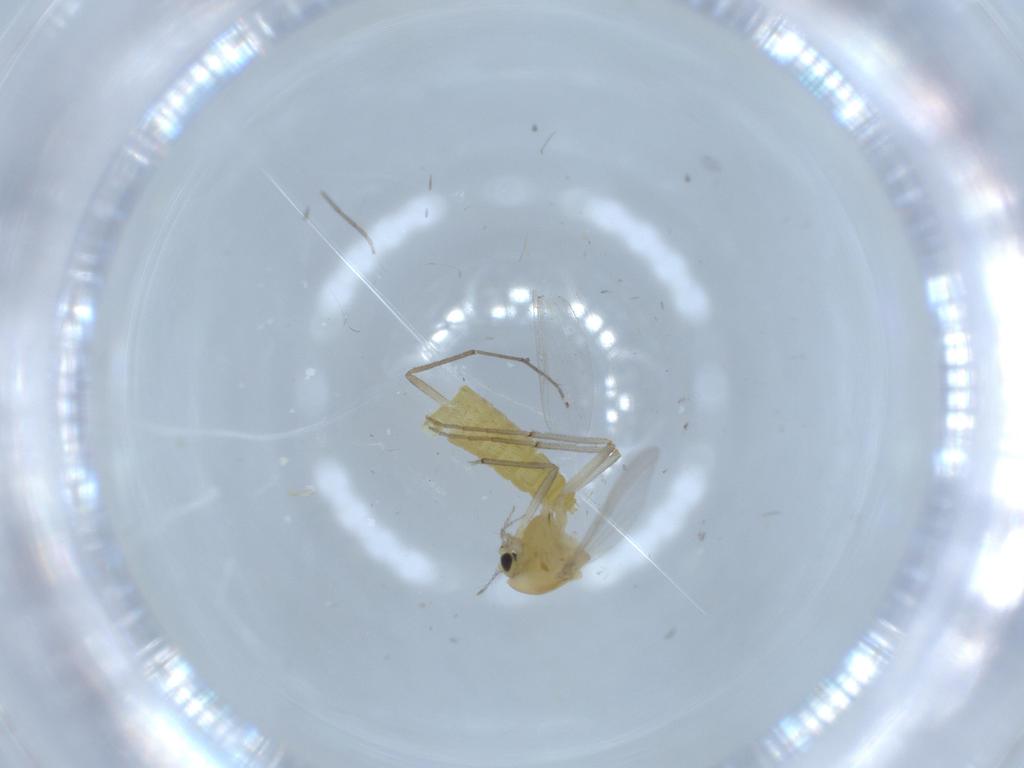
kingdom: Animalia
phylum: Arthropoda
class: Insecta
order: Diptera
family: Chironomidae
